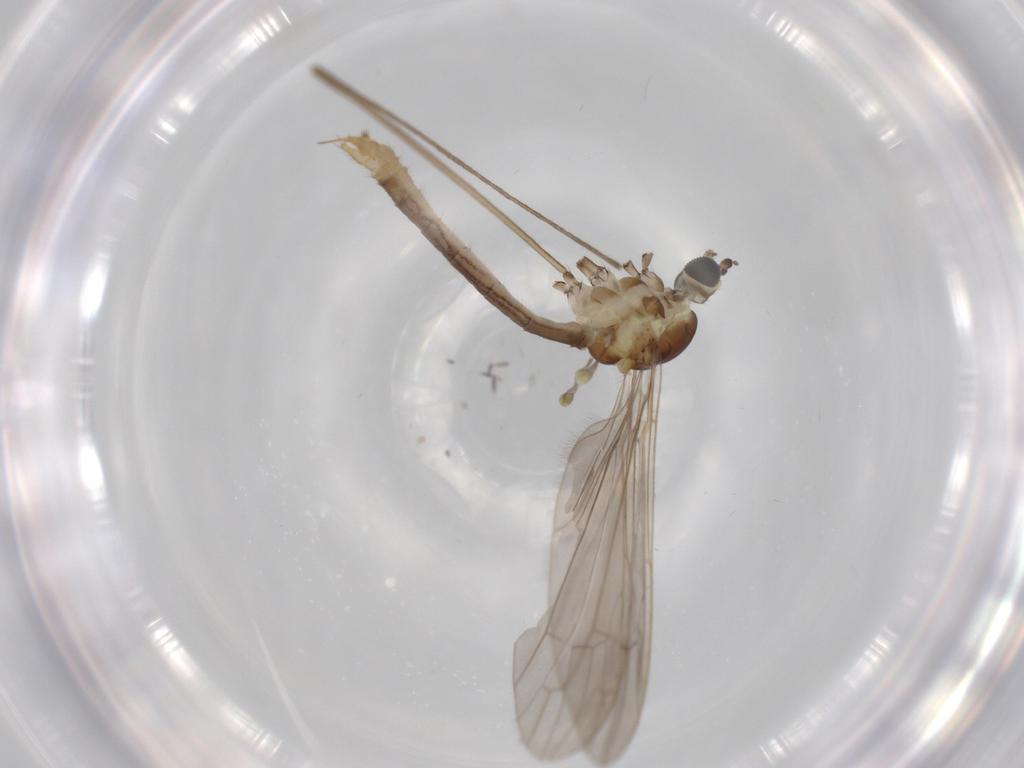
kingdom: Animalia
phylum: Arthropoda
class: Insecta
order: Diptera
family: Limoniidae
